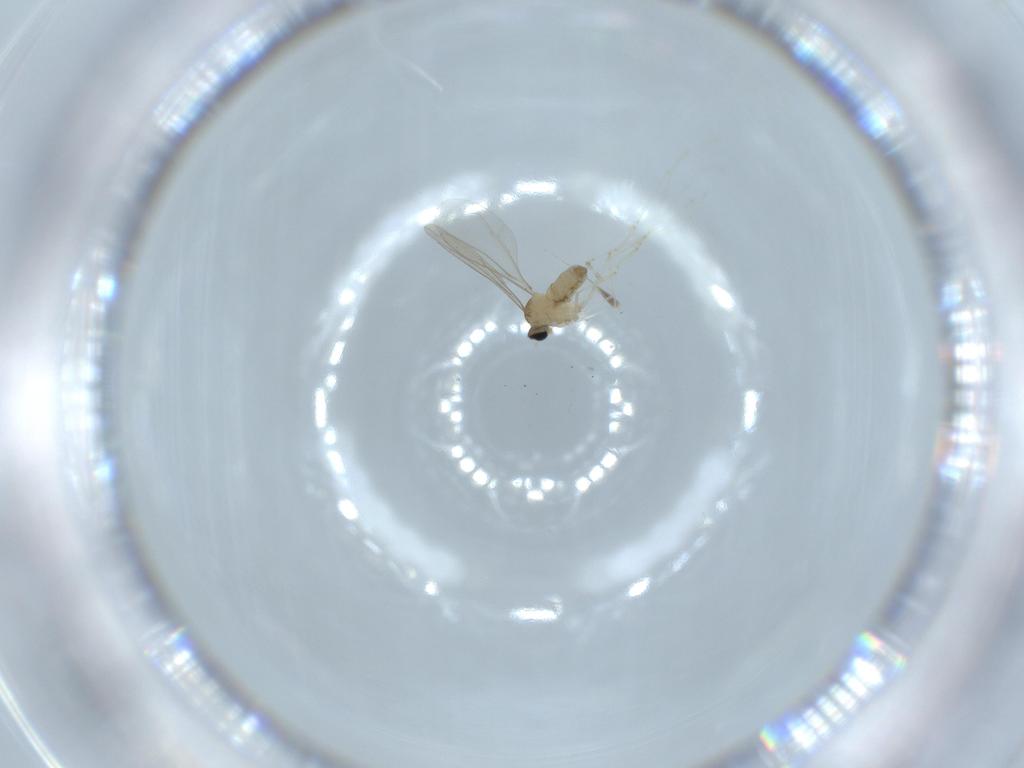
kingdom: Animalia
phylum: Arthropoda
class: Insecta
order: Diptera
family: Cecidomyiidae
